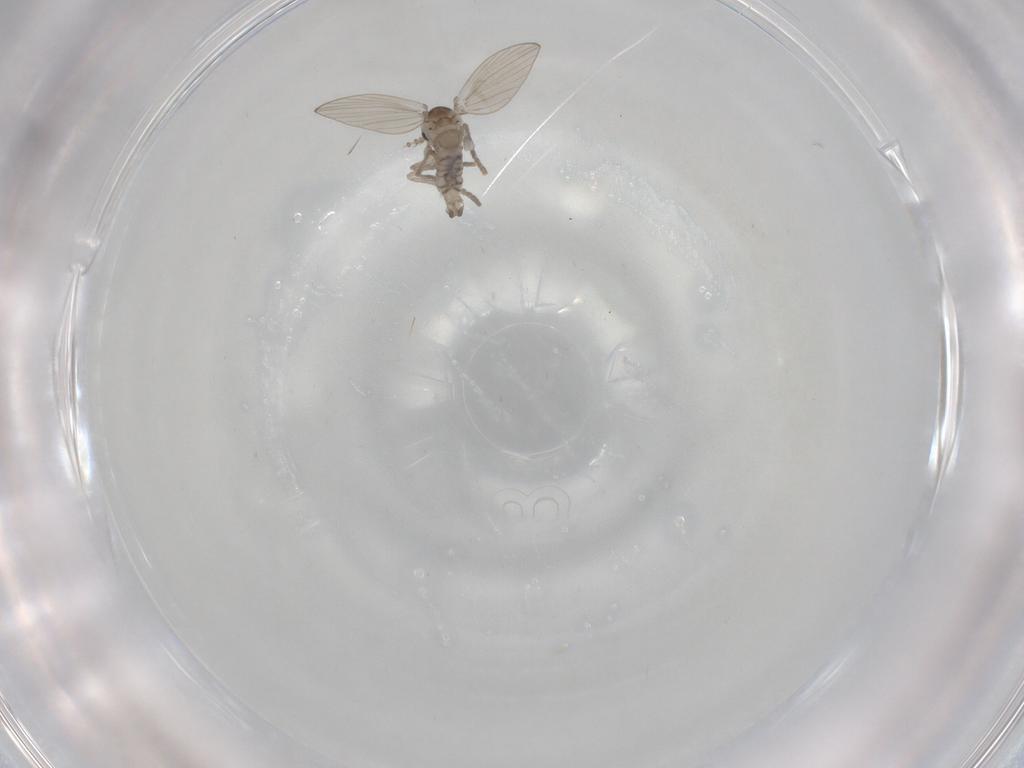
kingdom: Animalia
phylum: Arthropoda
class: Insecta
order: Diptera
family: Psychodidae
